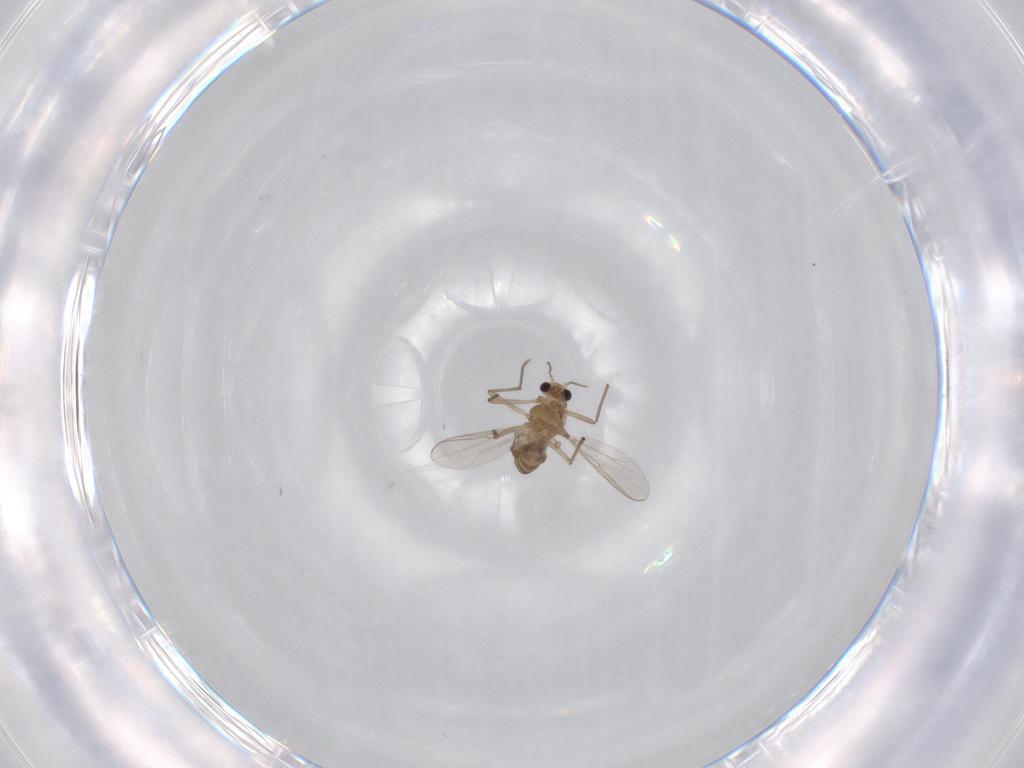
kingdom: Animalia
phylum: Arthropoda
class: Insecta
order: Diptera
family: Chironomidae
